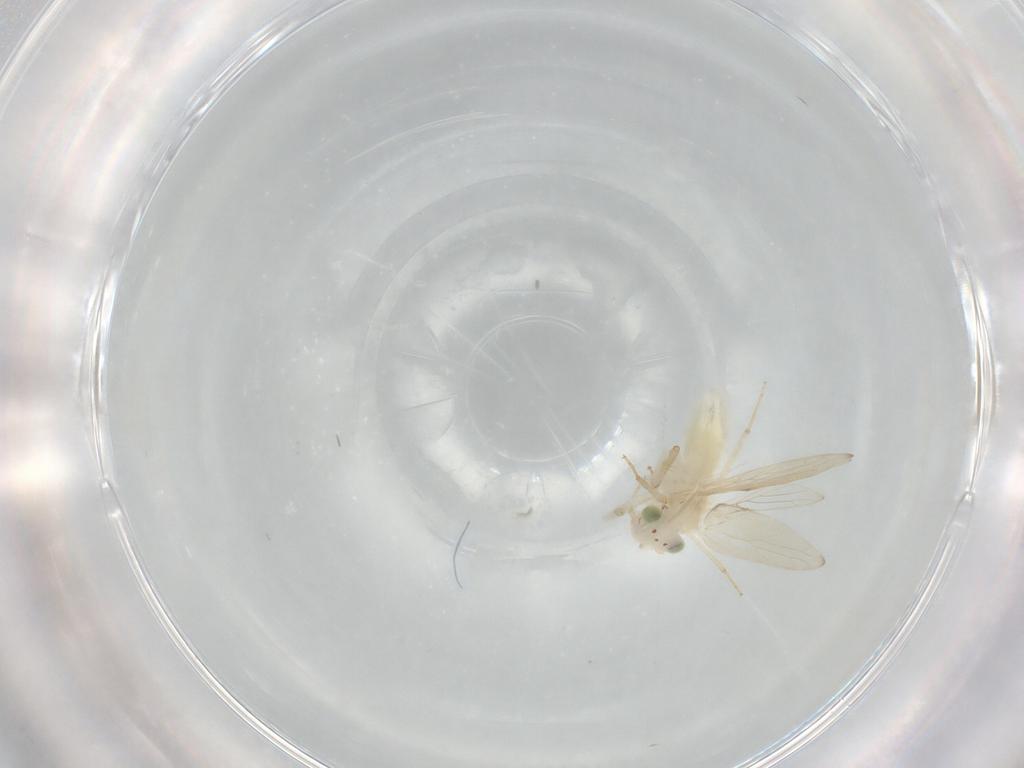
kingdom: Animalia
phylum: Arthropoda
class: Insecta
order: Psocodea
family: Lepidopsocidae
